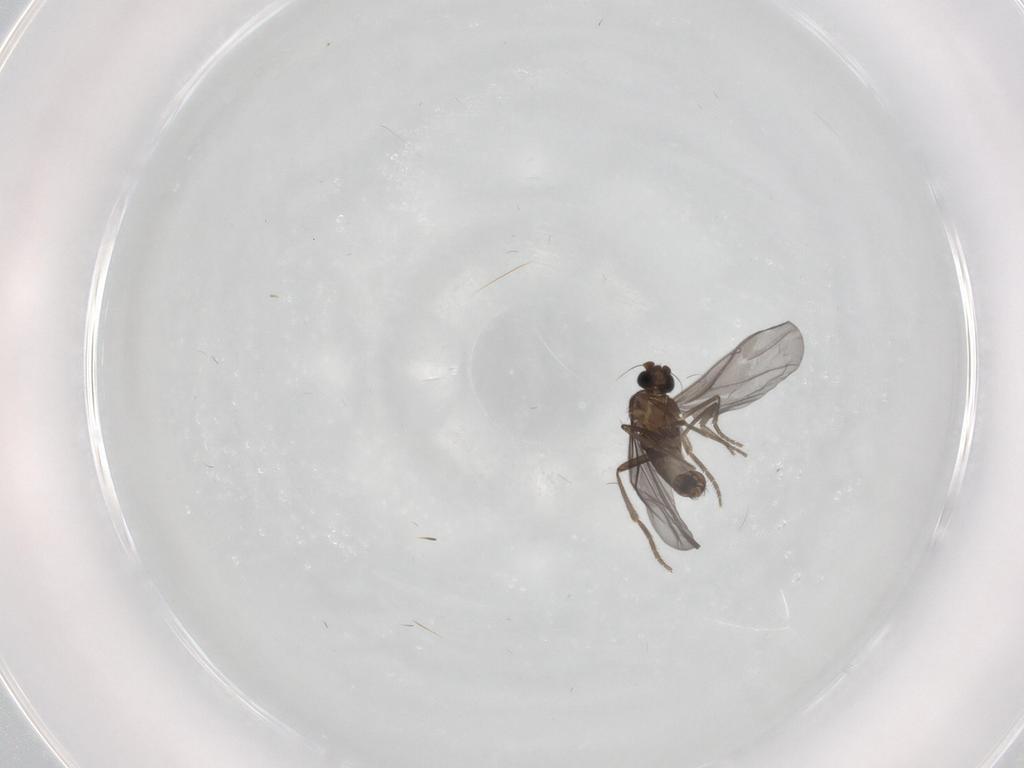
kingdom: Animalia
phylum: Arthropoda
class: Insecta
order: Diptera
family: Phoridae
